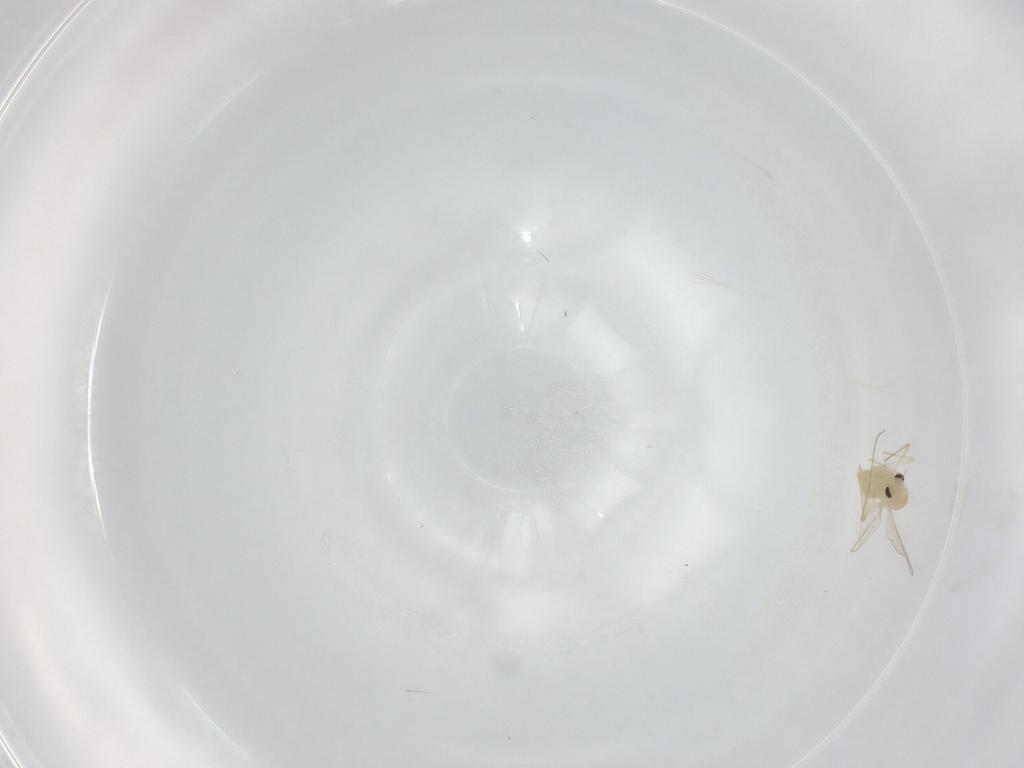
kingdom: Animalia
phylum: Arthropoda
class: Insecta
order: Diptera
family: Chironomidae
